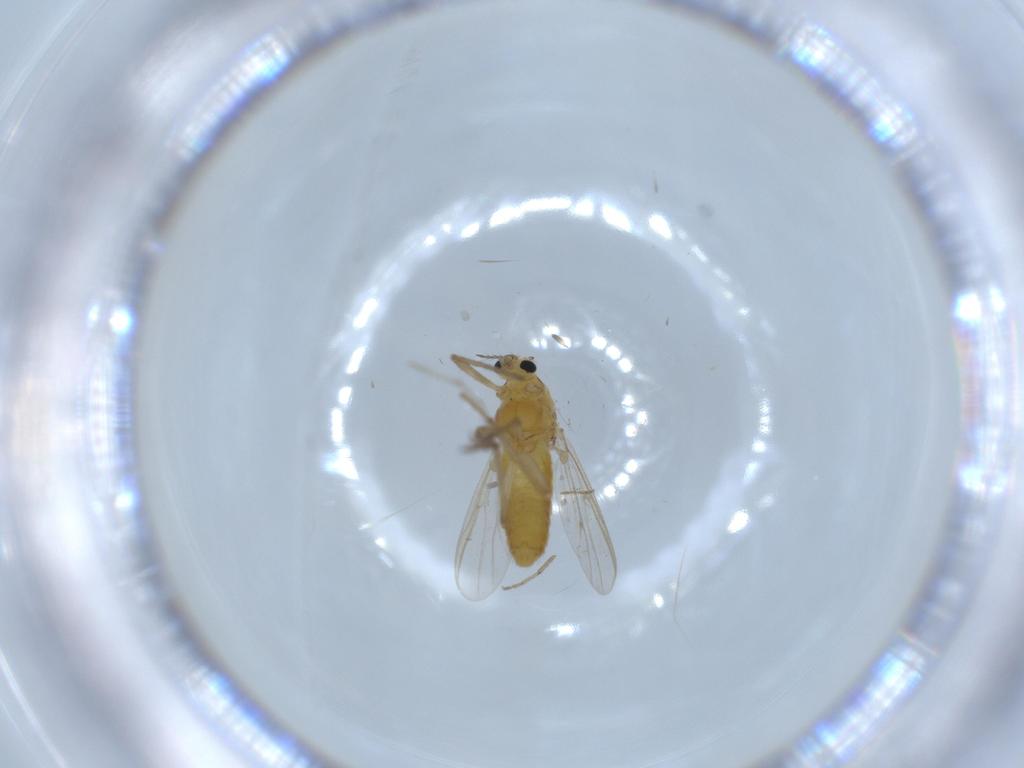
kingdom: Animalia
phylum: Arthropoda
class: Insecta
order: Diptera
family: Chironomidae
